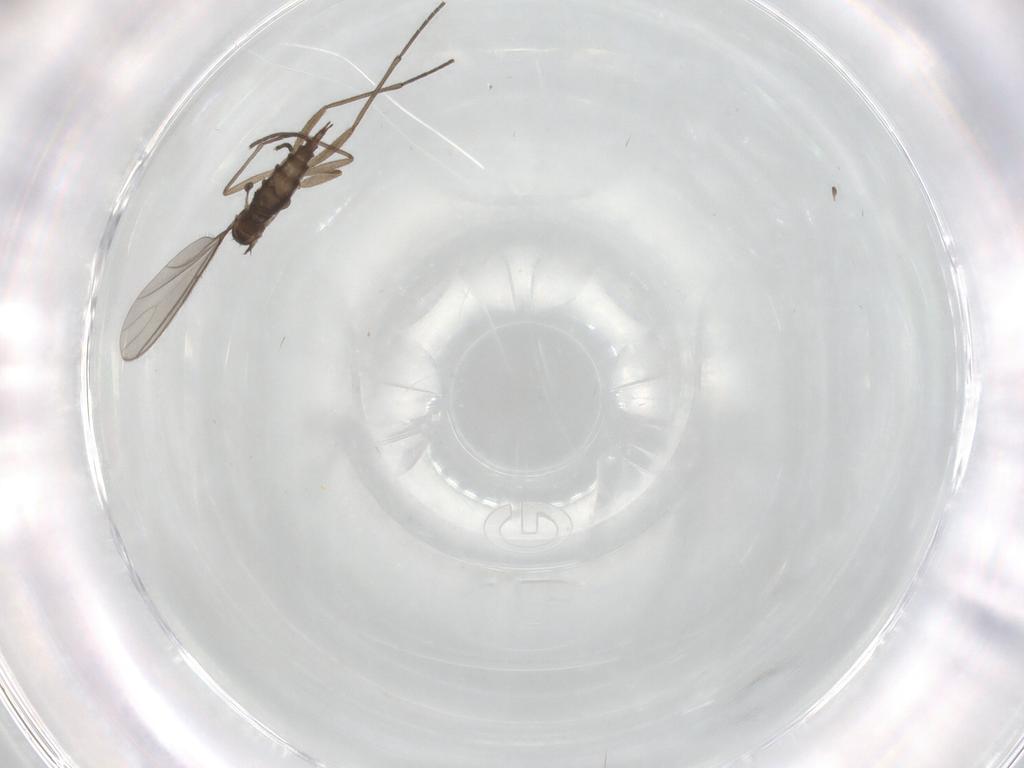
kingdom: Animalia
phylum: Arthropoda
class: Insecta
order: Diptera
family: Sciaridae
